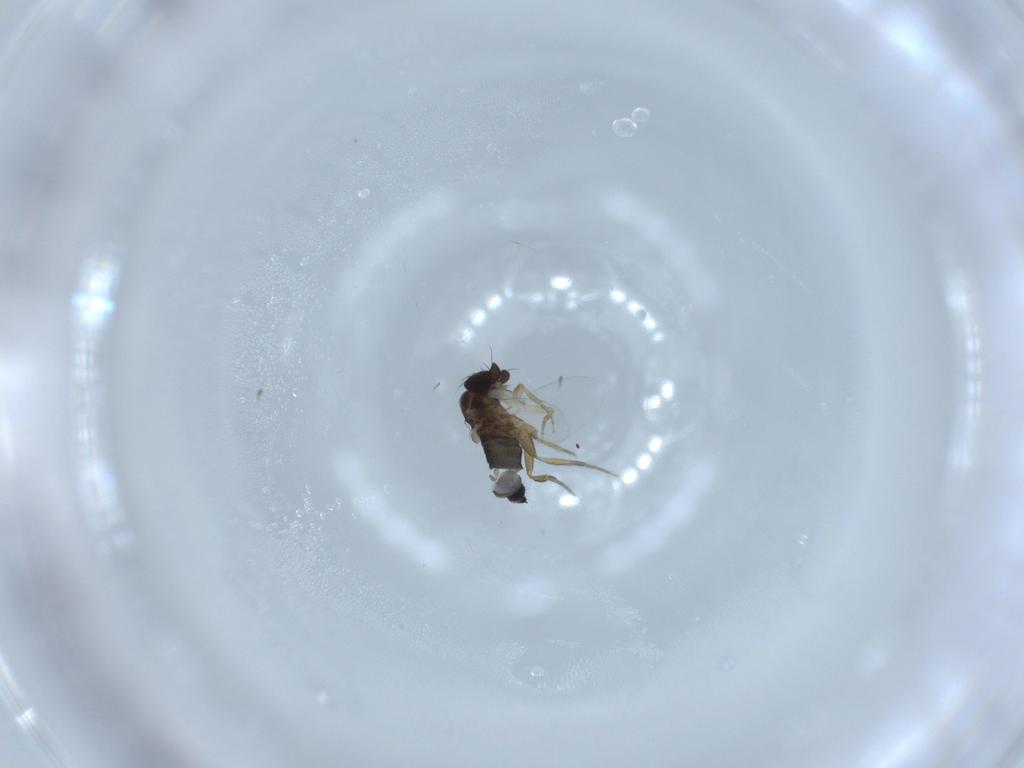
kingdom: Animalia
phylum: Arthropoda
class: Insecta
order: Diptera
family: Phoridae
